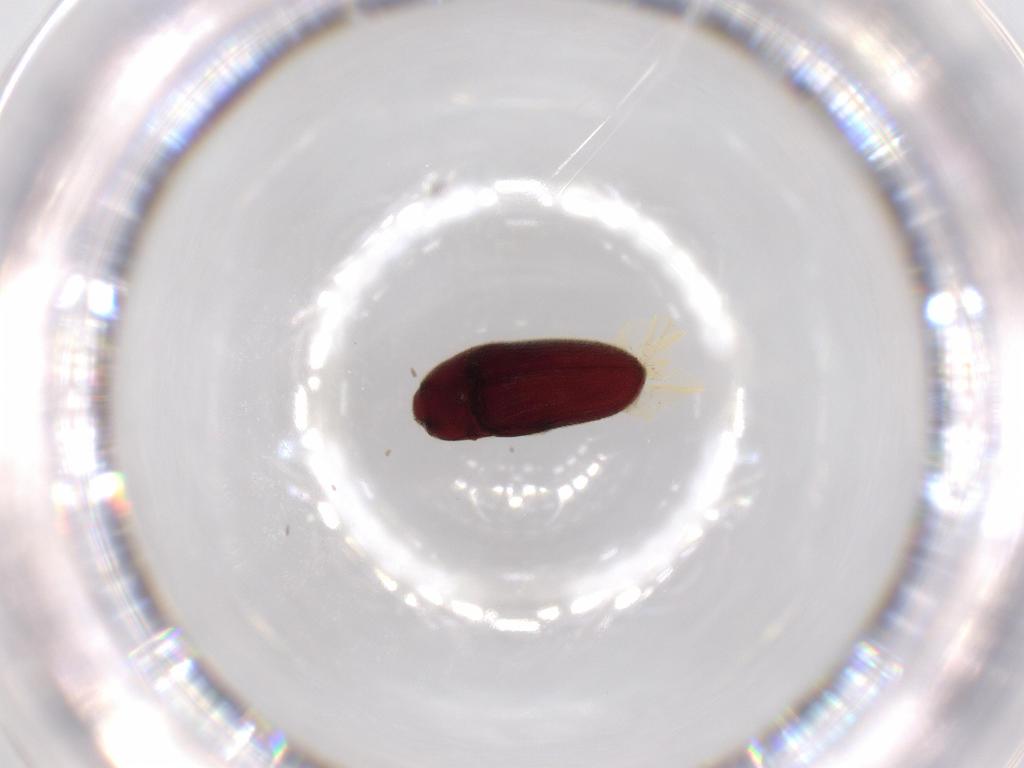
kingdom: Animalia
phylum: Arthropoda
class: Insecta
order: Coleoptera
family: Throscidae
